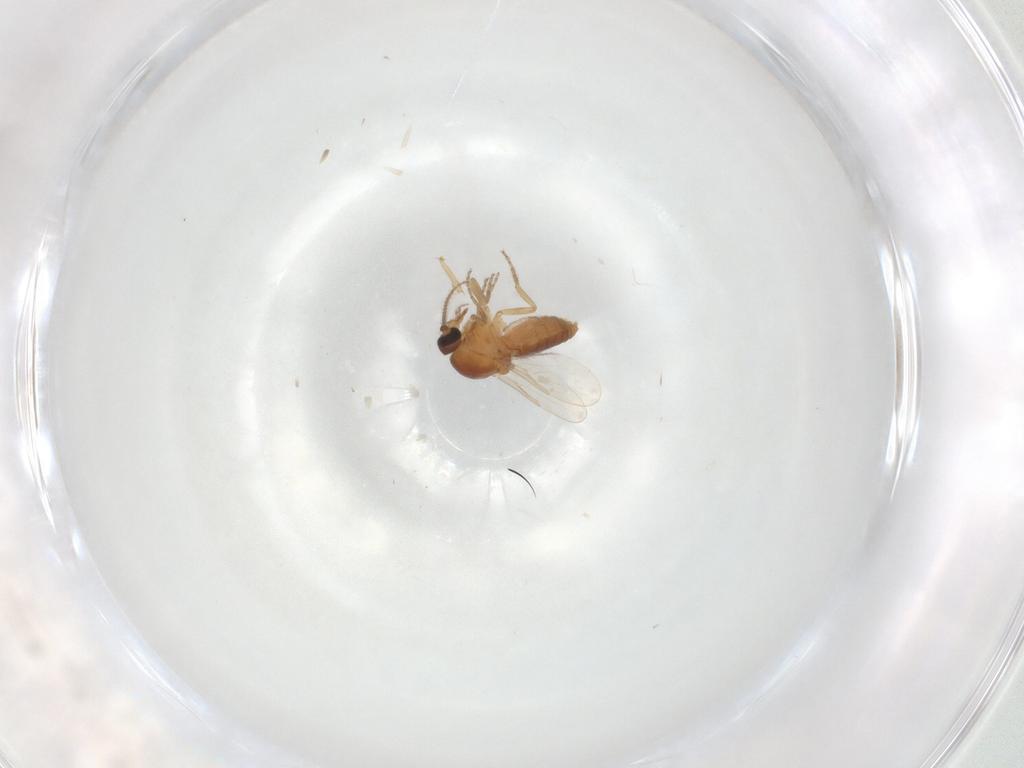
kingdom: Animalia
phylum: Arthropoda
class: Insecta
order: Diptera
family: Ceratopogonidae
